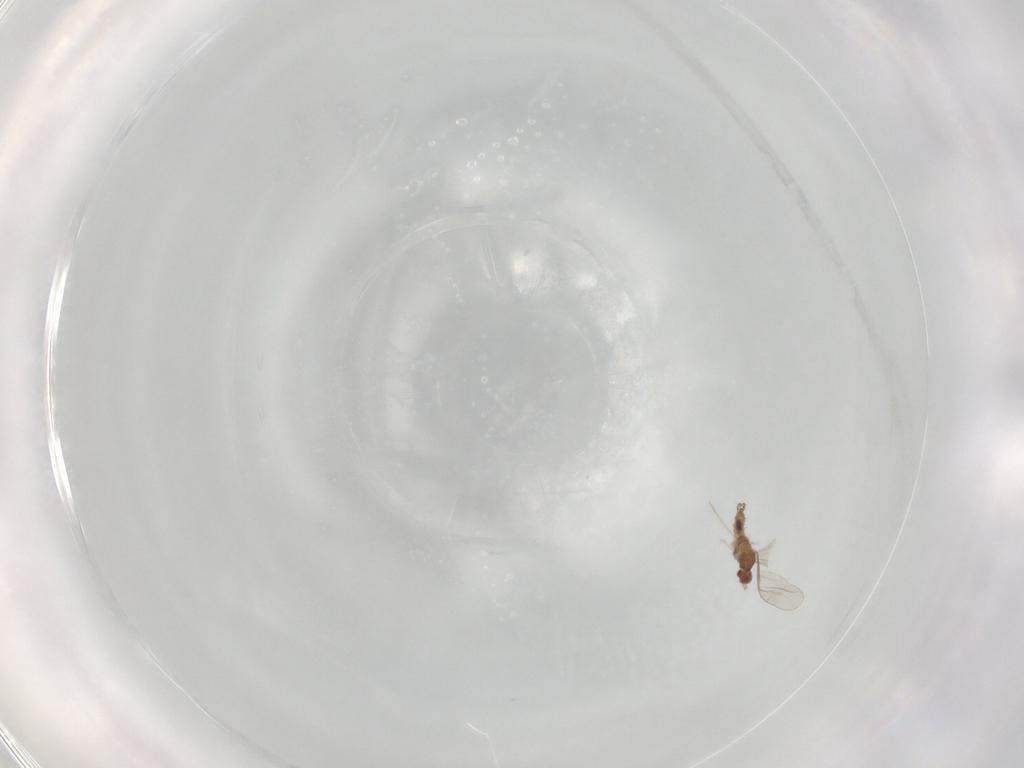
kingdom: Animalia
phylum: Arthropoda
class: Insecta
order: Diptera
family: Cecidomyiidae
